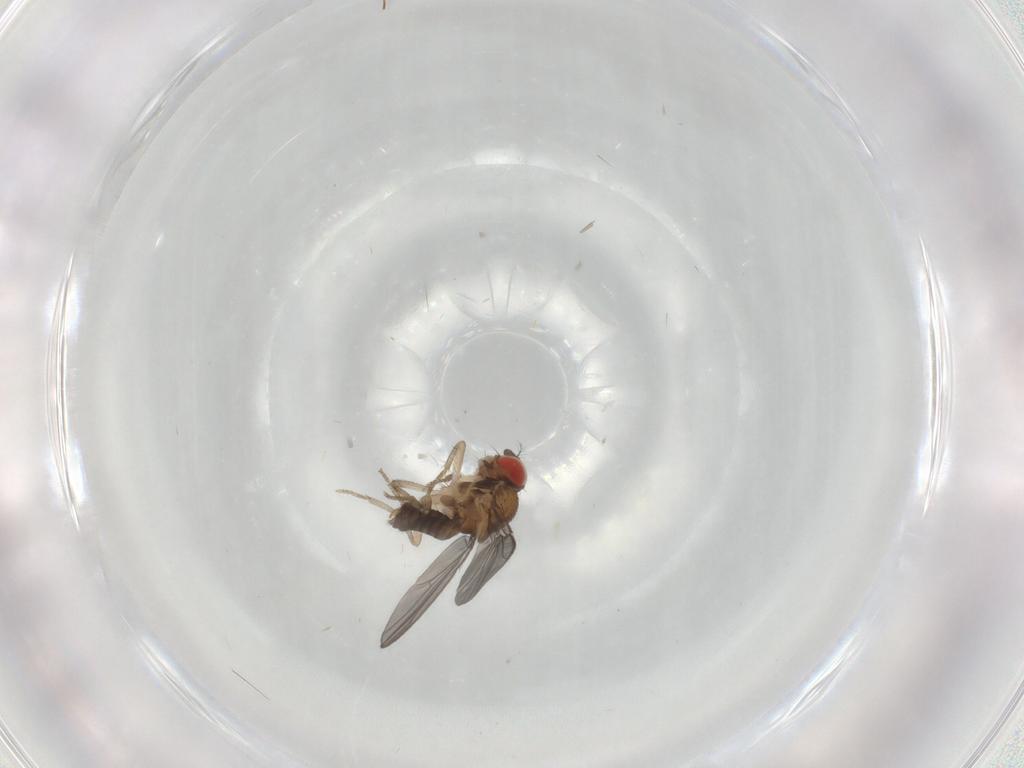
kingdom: Animalia
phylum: Arthropoda
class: Insecta
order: Diptera
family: Drosophilidae
